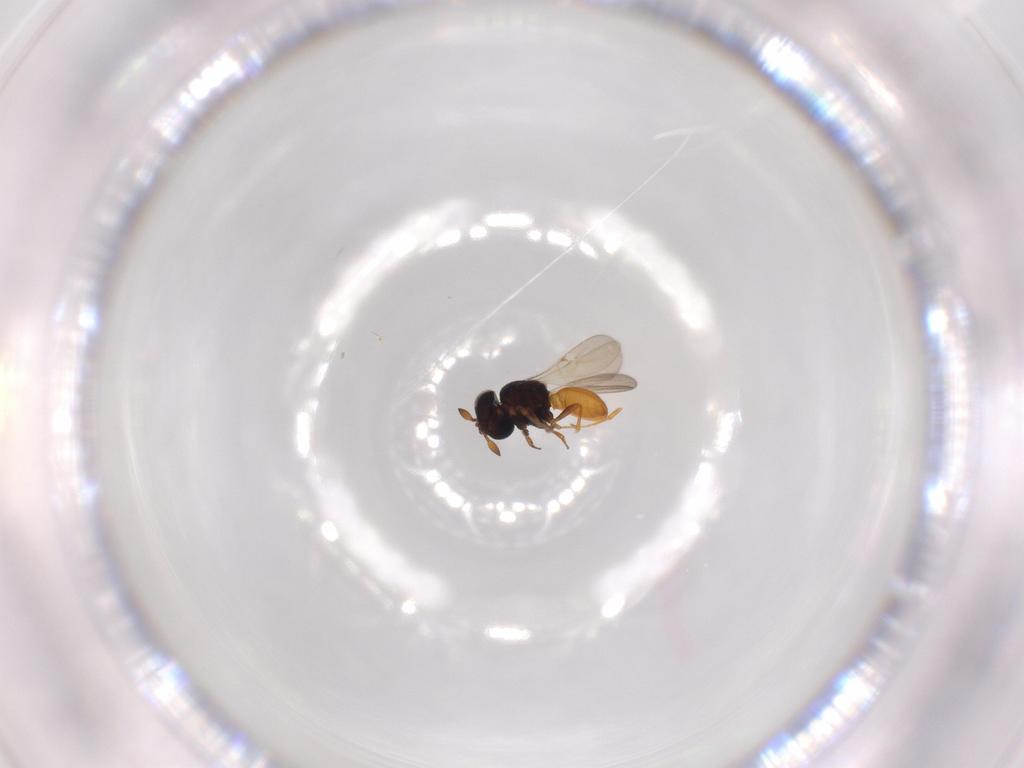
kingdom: Animalia
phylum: Arthropoda
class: Insecta
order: Hymenoptera
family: Scelionidae
